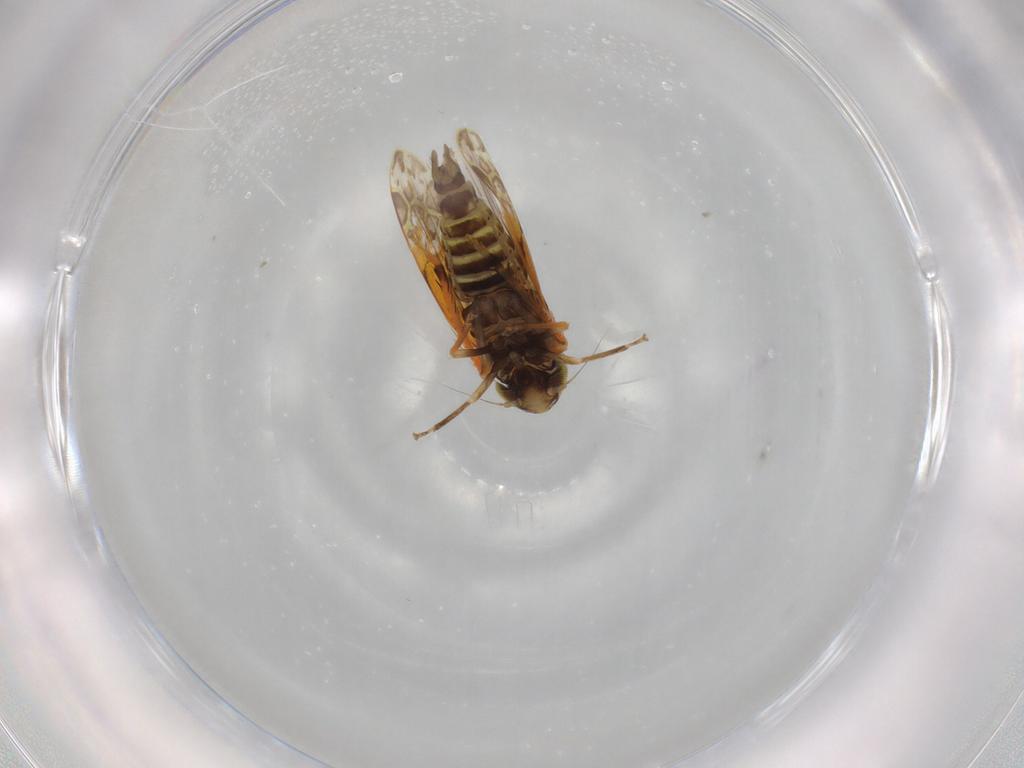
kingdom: Animalia
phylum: Arthropoda
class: Insecta
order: Hemiptera
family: Cicadellidae
